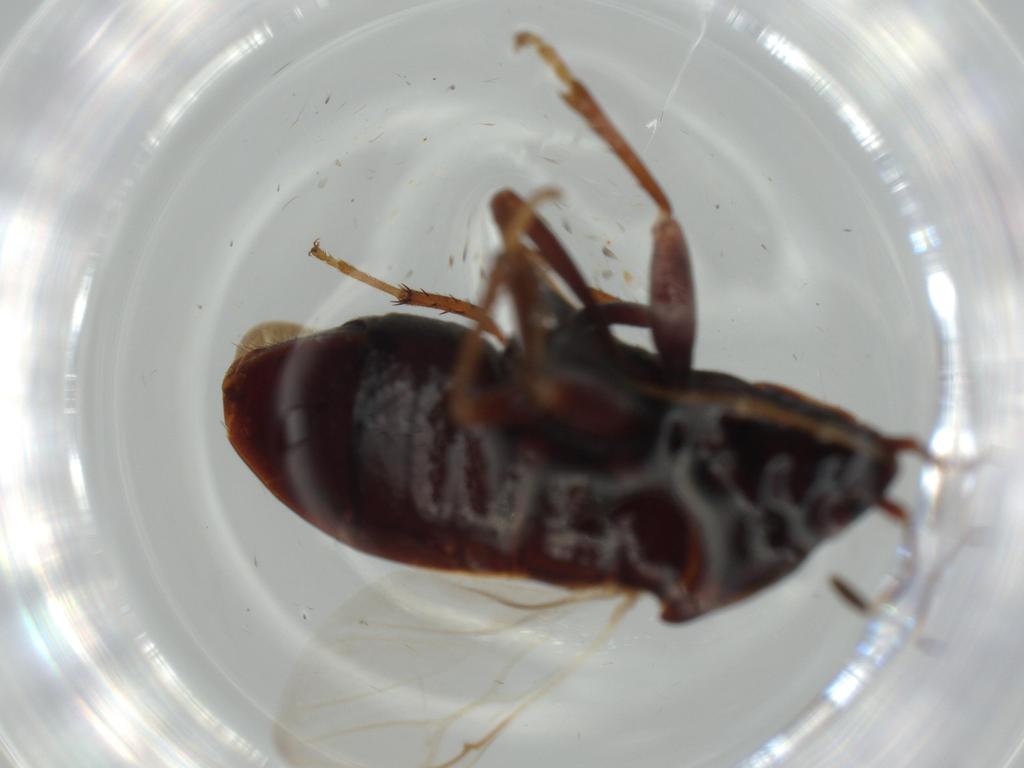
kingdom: Animalia
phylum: Arthropoda
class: Insecta
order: Hemiptera
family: Rhyparochromidae
